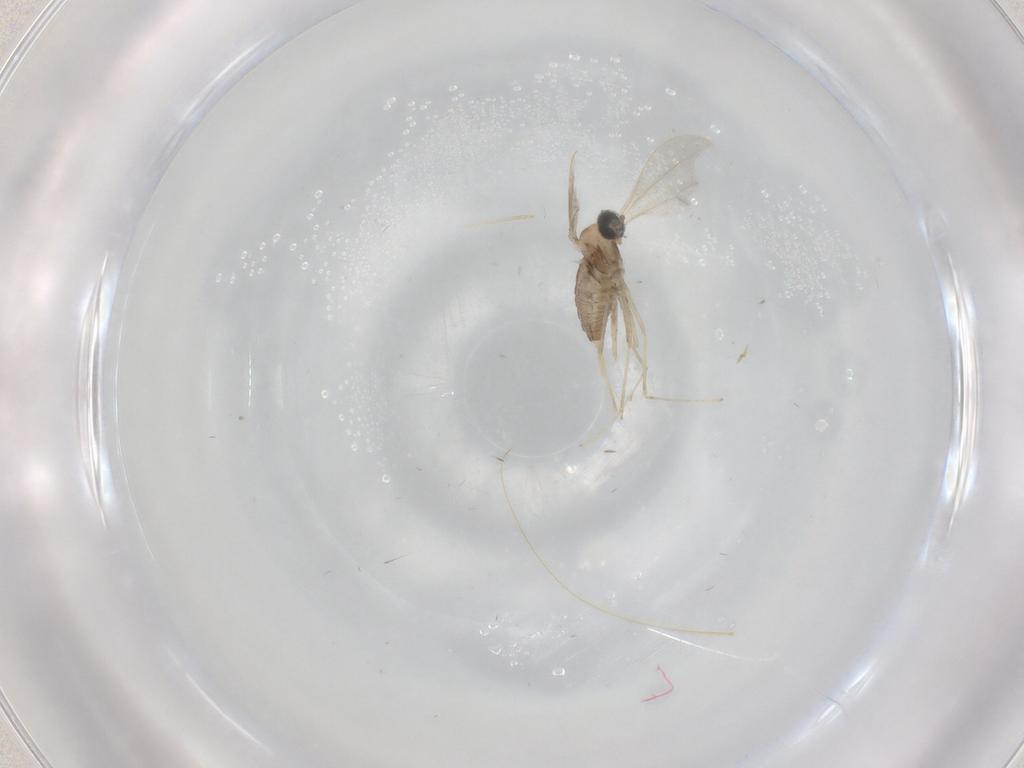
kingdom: Animalia
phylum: Arthropoda
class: Insecta
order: Diptera
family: Cecidomyiidae
